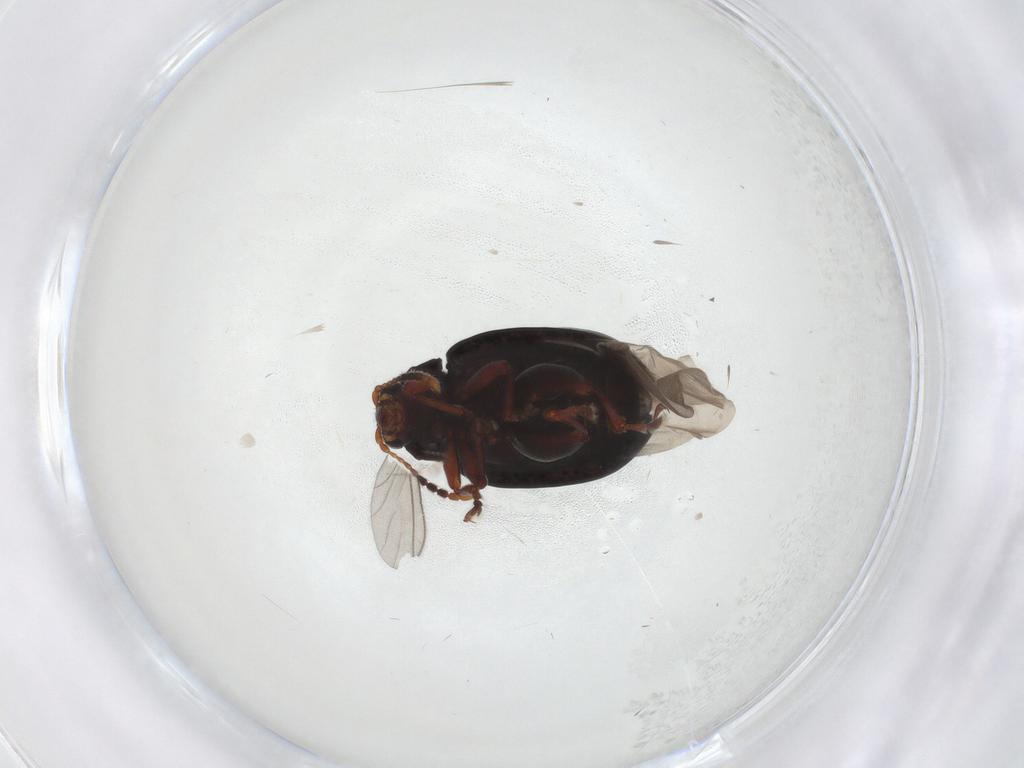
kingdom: Animalia
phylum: Arthropoda
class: Insecta
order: Coleoptera
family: Chrysomelidae
